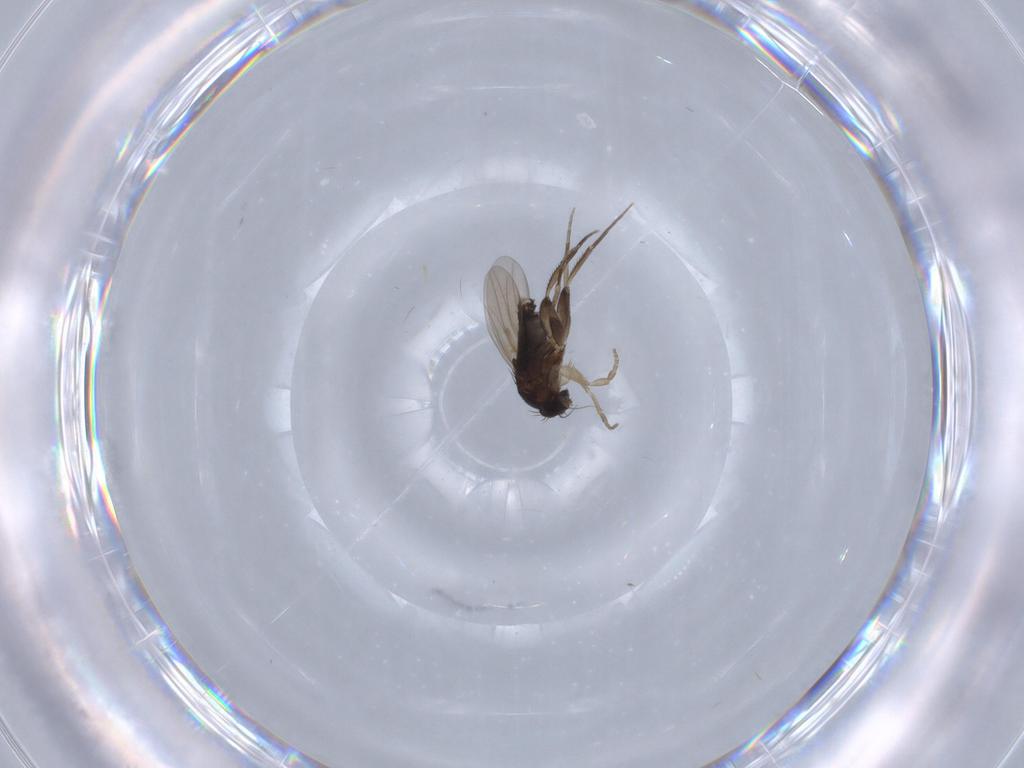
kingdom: Animalia
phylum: Arthropoda
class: Insecta
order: Diptera
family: Phoridae
